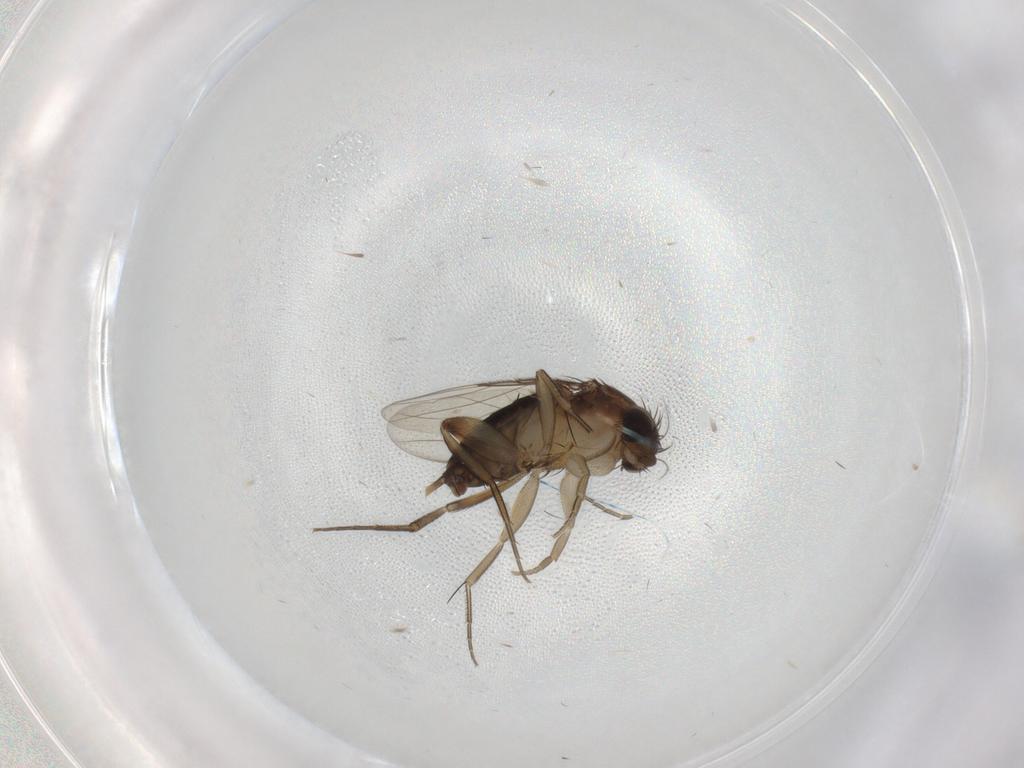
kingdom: Animalia
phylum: Arthropoda
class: Insecta
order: Diptera
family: Phoridae
